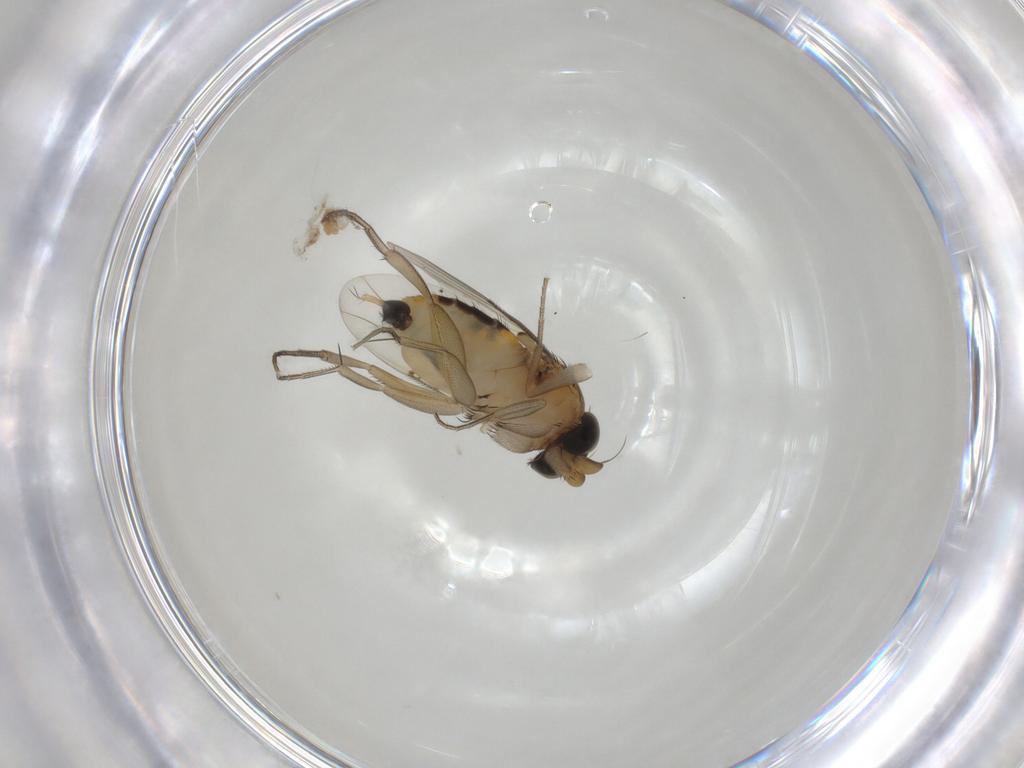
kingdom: Animalia
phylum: Arthropoda
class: Insecta
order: Diptera
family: Phoridae
